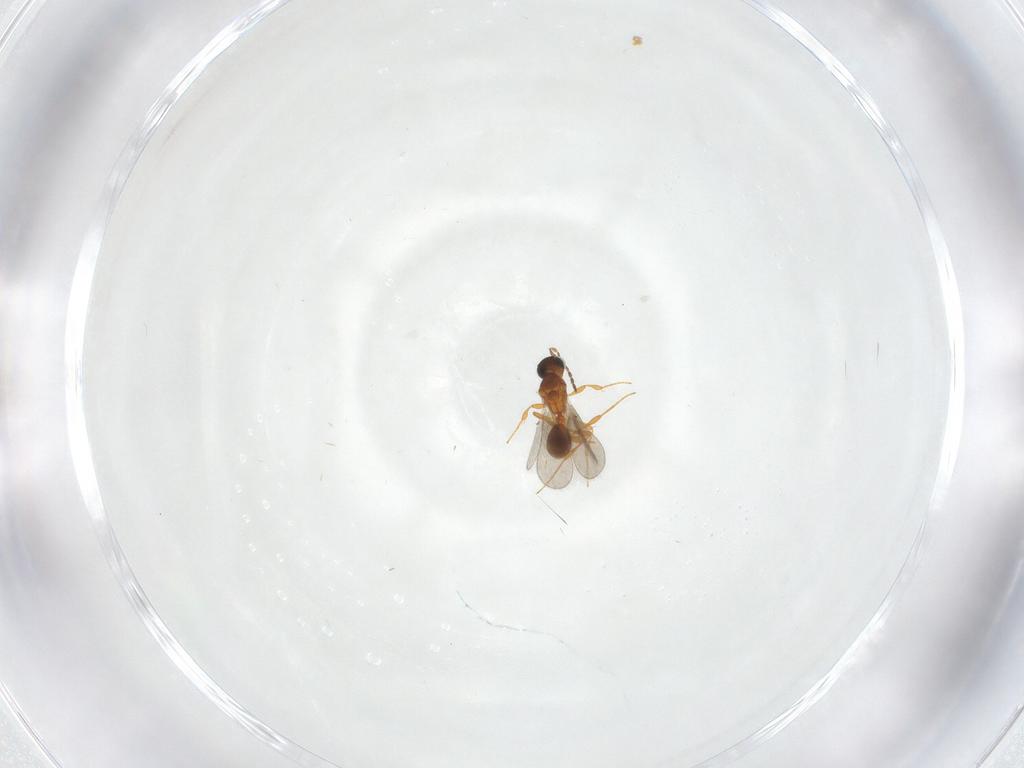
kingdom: Animalia
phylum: Arthropoda
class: Insecta
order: Hymenoptera
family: Platygastridae
